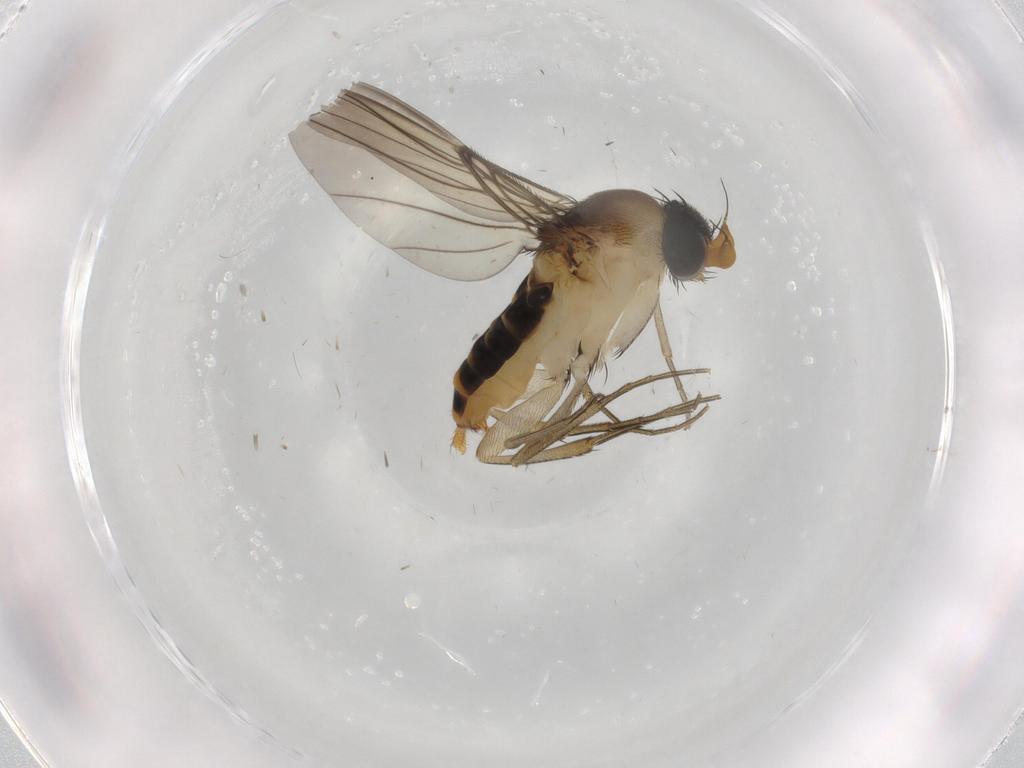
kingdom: Animalia
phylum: Arthropoda
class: Insecta
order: Diptera
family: Phoridae
